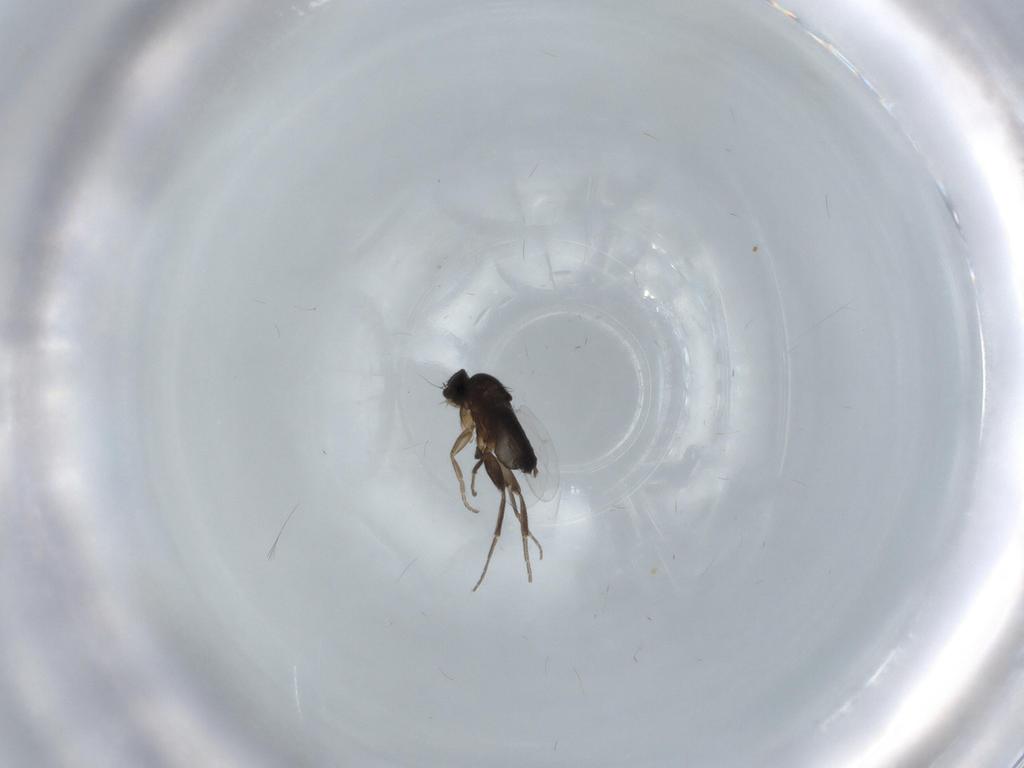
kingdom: Animalia
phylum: Arthropoda
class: Insecta
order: Diptera
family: Phoridae
